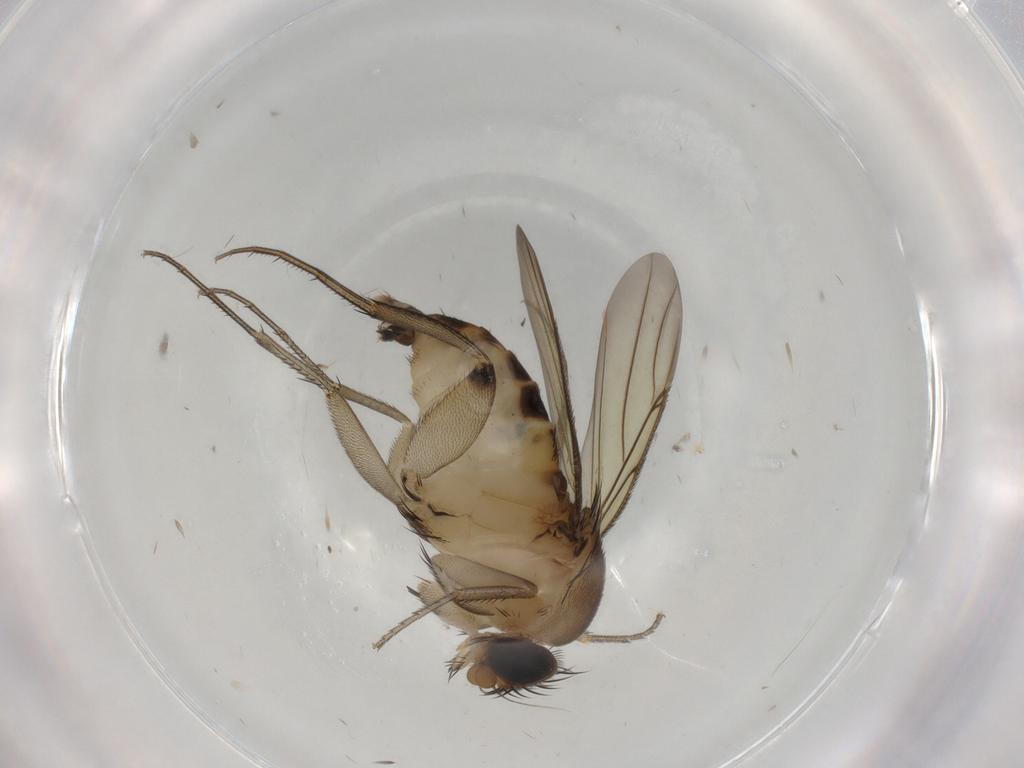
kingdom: Animalia
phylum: Arthropoda
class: Insecta
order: Diptera
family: Phoridae
